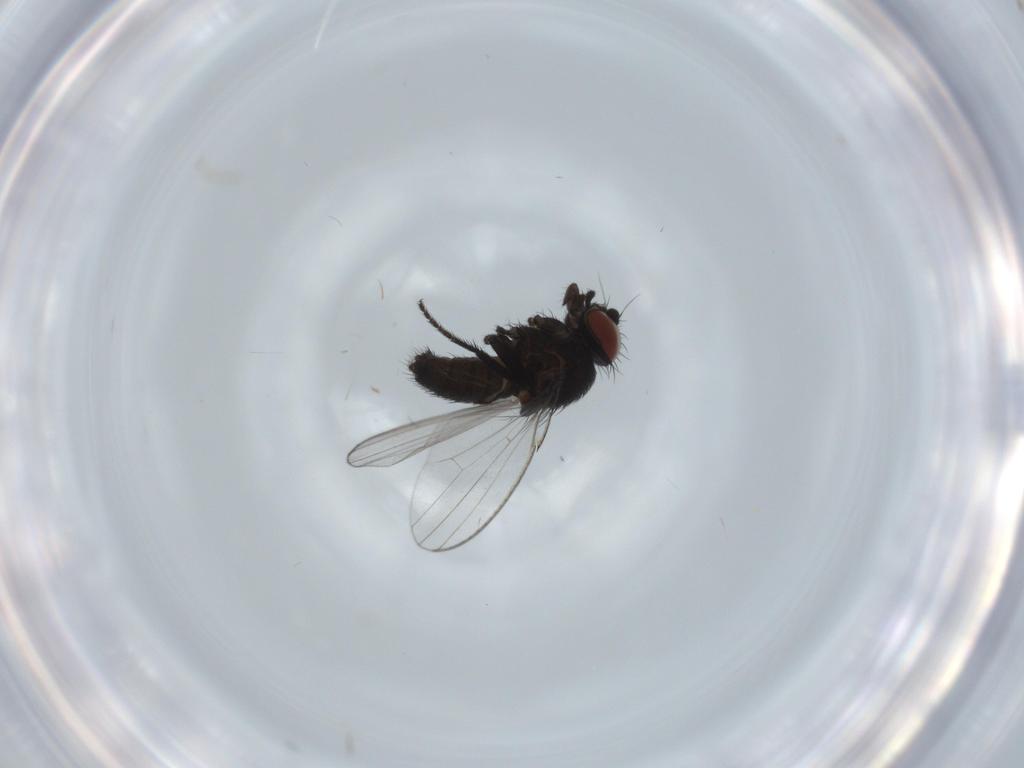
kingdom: Animalia
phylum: Arthropoda
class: Insecta
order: Diptera
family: Milichiidae
